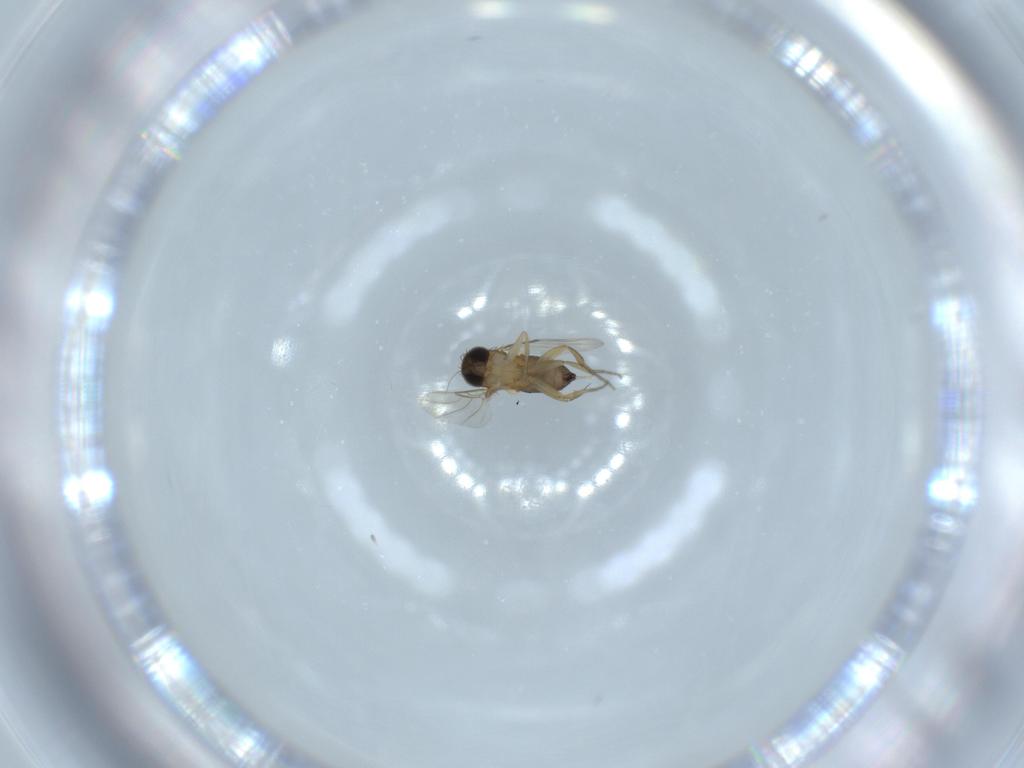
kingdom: Animalia
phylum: Arthropoda
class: Insecta
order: Diptera
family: Phoridae
